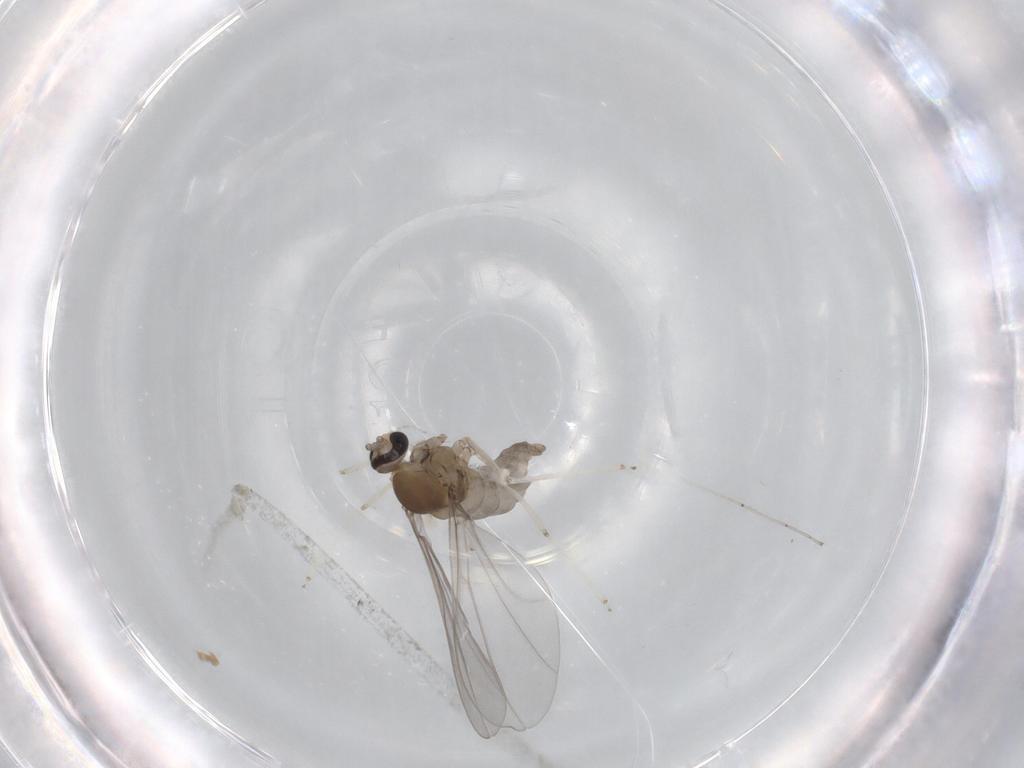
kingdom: Animalia
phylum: Arthropoda
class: Insecta
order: Diptera
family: Cecidomyiidae
